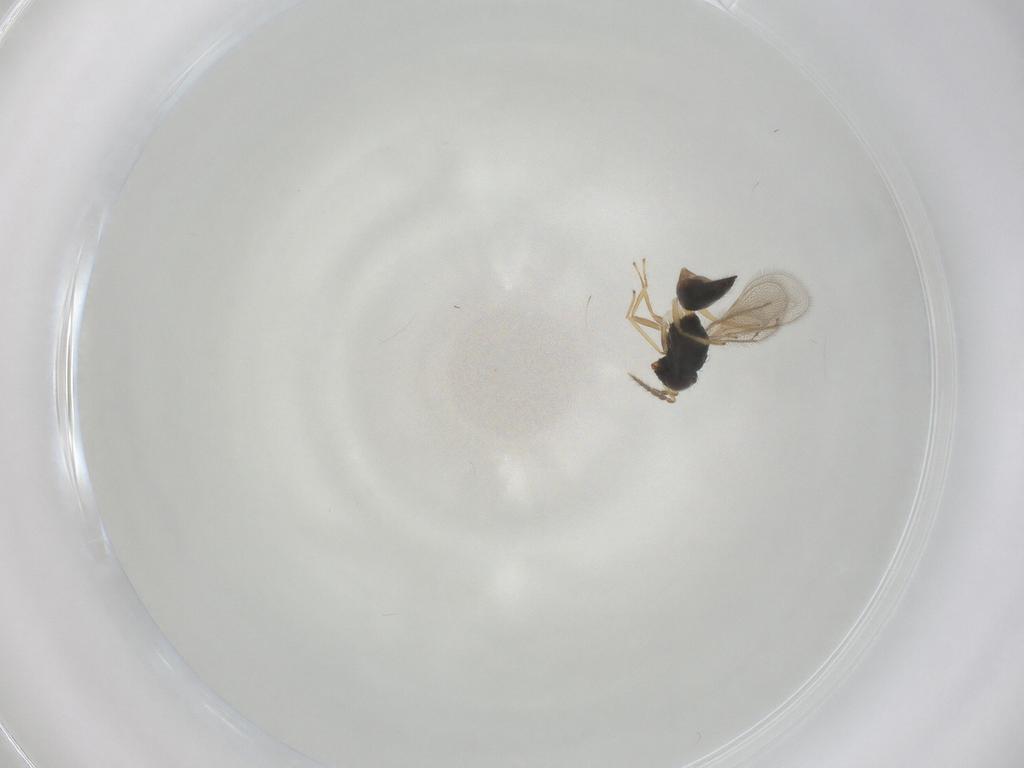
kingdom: Animalia
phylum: Arthropoda
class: Insecta
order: Hymenoptera
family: Eulophidae
